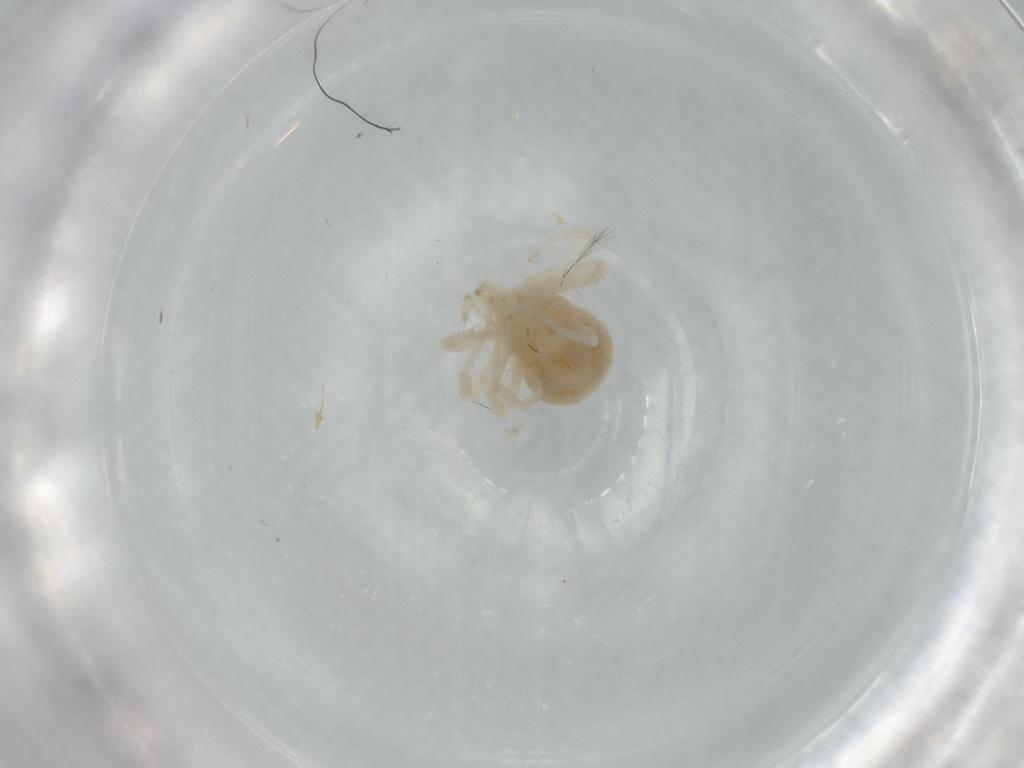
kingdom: Animalia
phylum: Arthropoda
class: Arachnida
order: Trombidiformes
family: Anystidae
